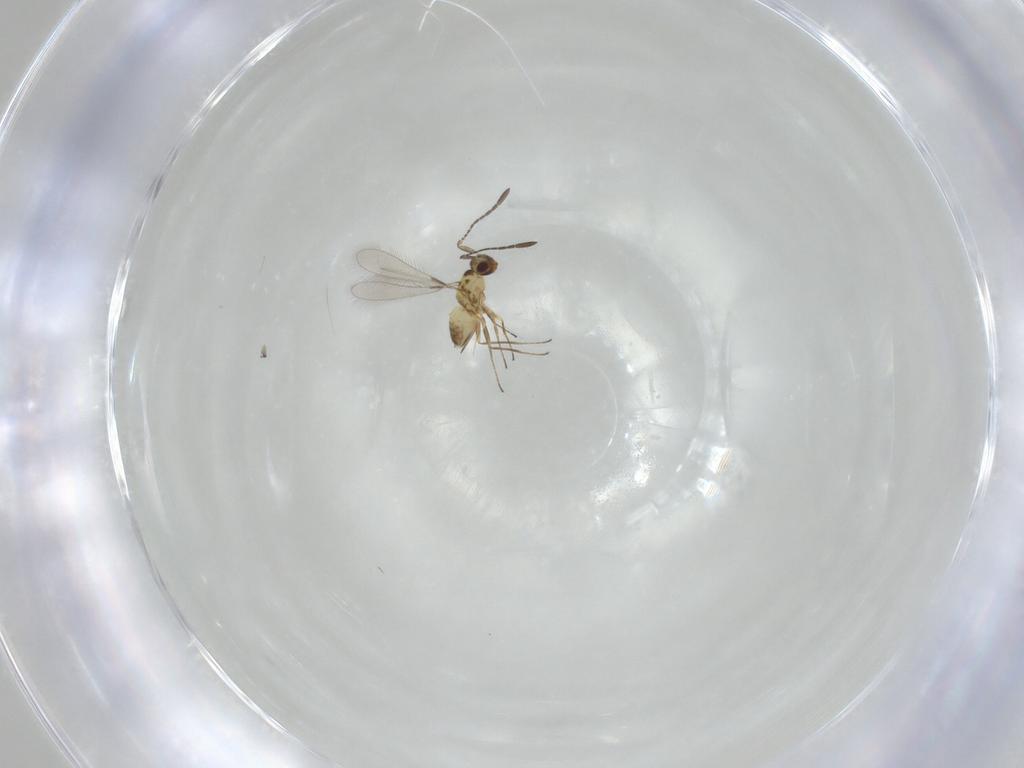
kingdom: Animalia
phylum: Arthropoda
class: Insecta
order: Hymenoptera
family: Mymaridae
